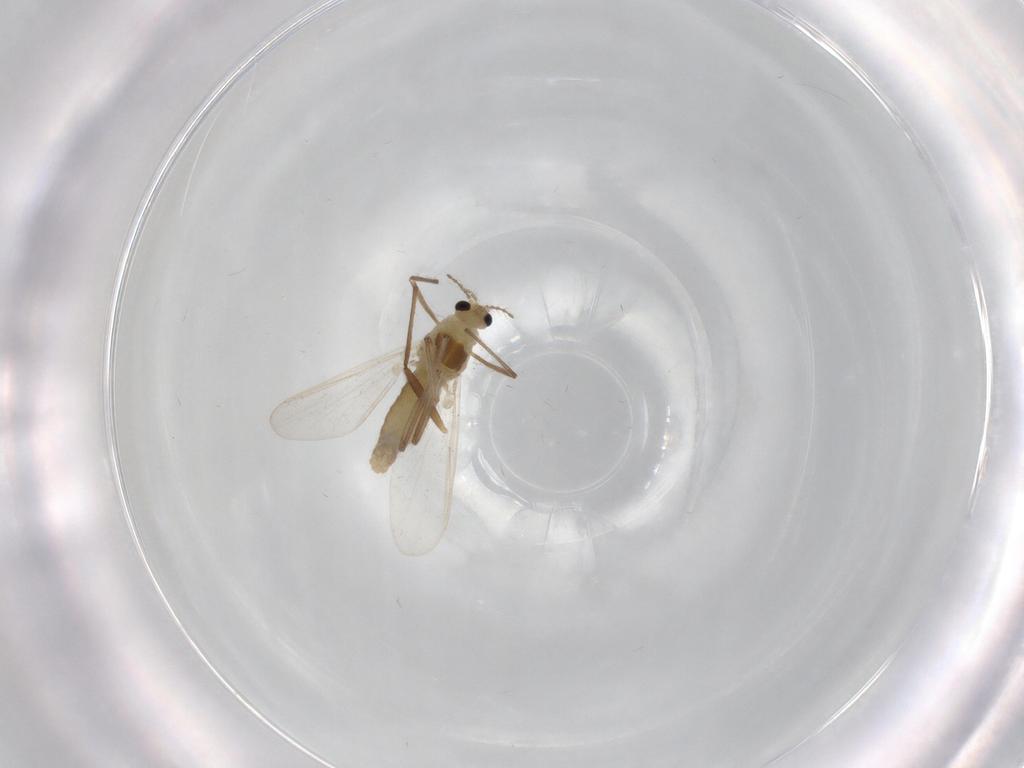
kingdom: Animalia
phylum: Arthropoda
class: Insecta
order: Diptera
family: Chironomidae
